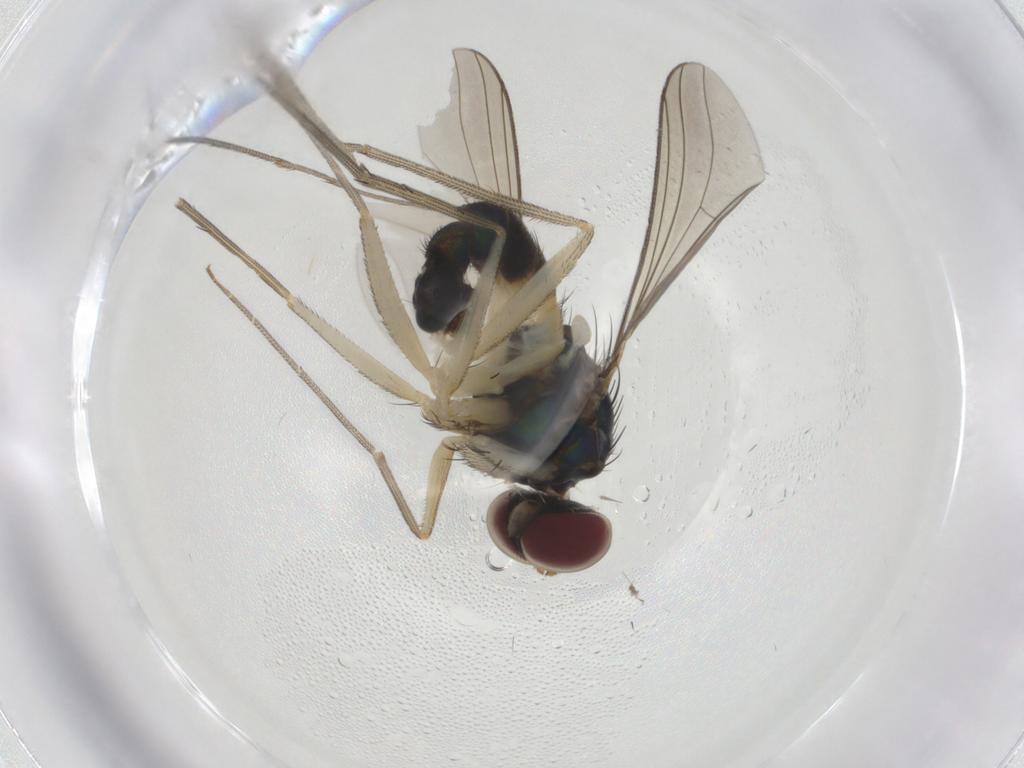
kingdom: Animalia
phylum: Arthropoda
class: Insecta
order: Diptera
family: Dolichopodidae
